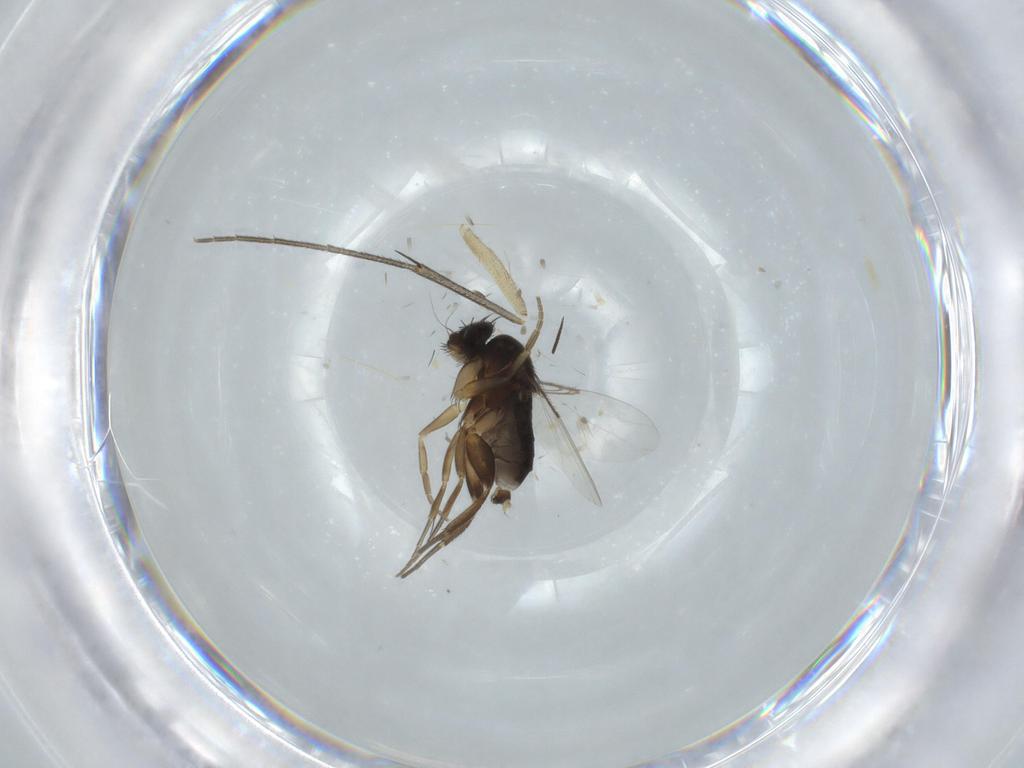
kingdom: Animalia
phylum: Arthropoda
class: Insecta
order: Diptera
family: Phoridae
